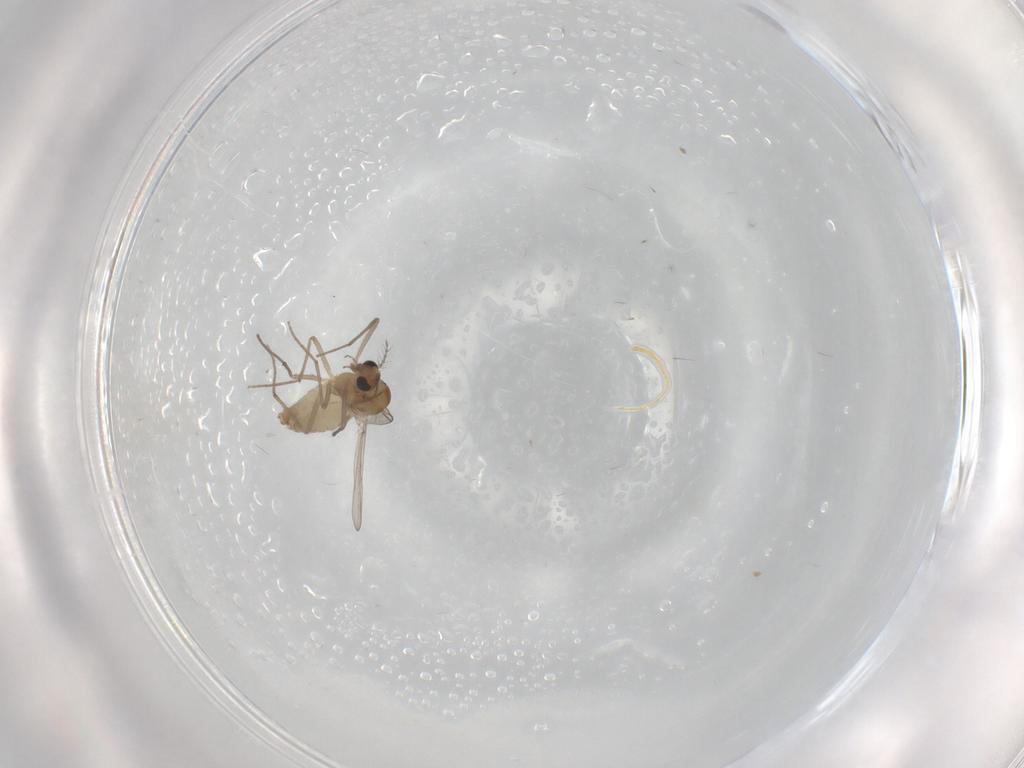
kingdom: Animalia
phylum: Arthropoda
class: Insecta
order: Diptera
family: Chironomidae
